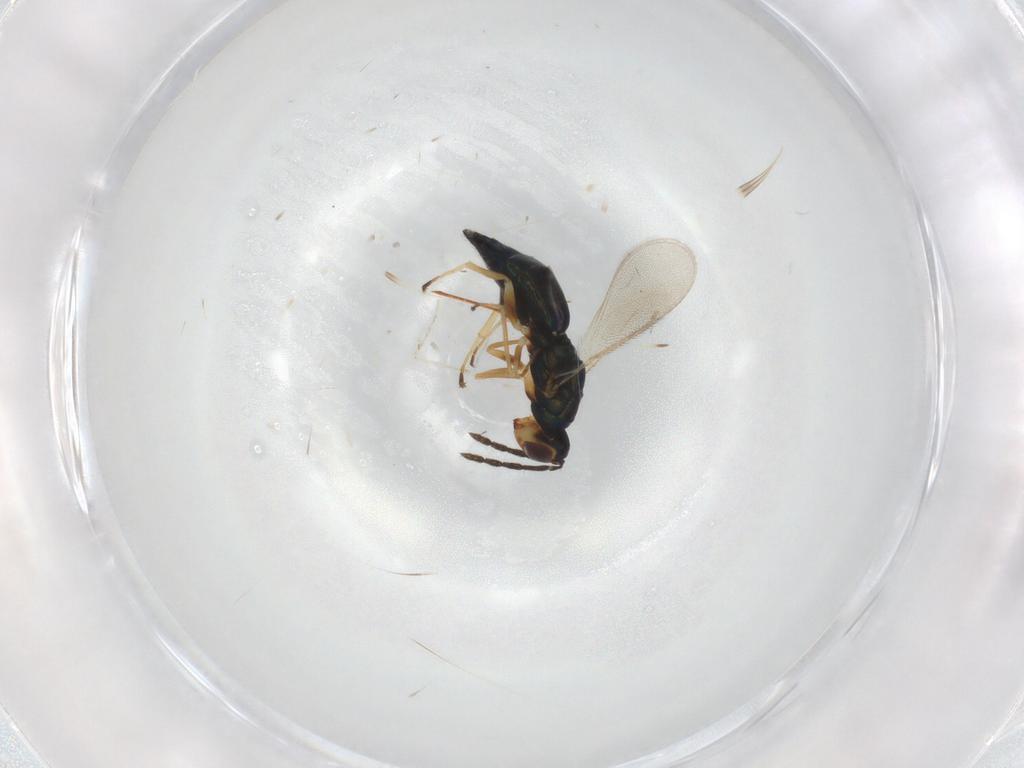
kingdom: Animalia
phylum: Arthropoda
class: Insecta
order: Hymenoptera
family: Eulophidae
